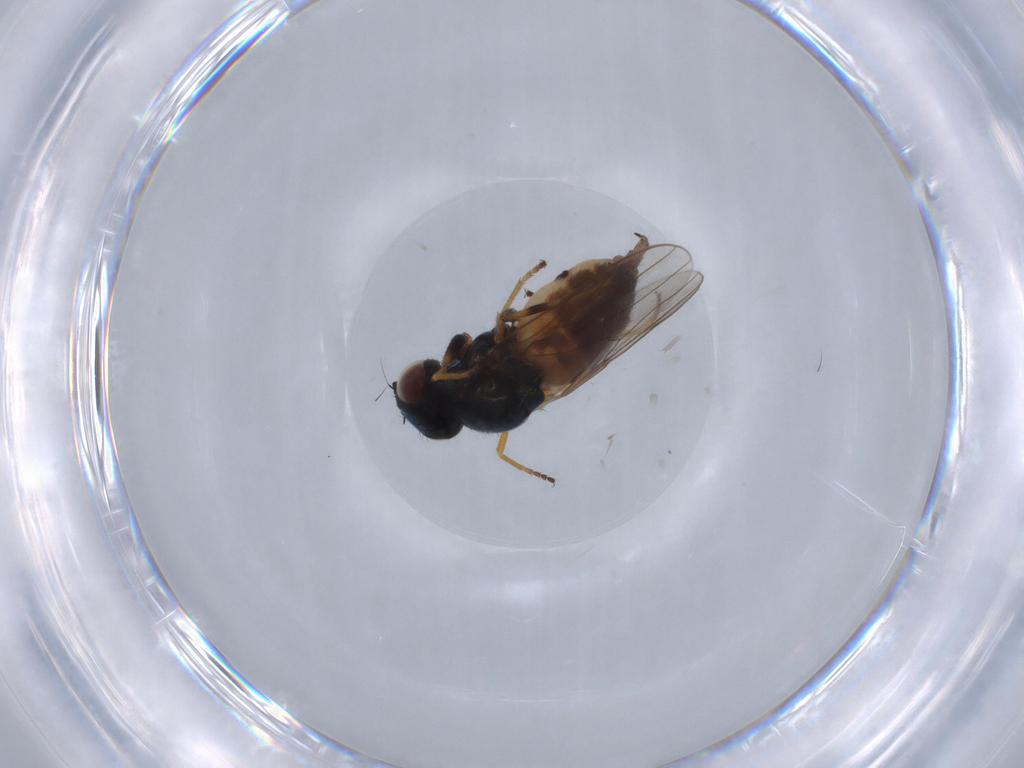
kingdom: Animalia
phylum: Arthropoda
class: Insecta
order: Diptera
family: Chloropidae
